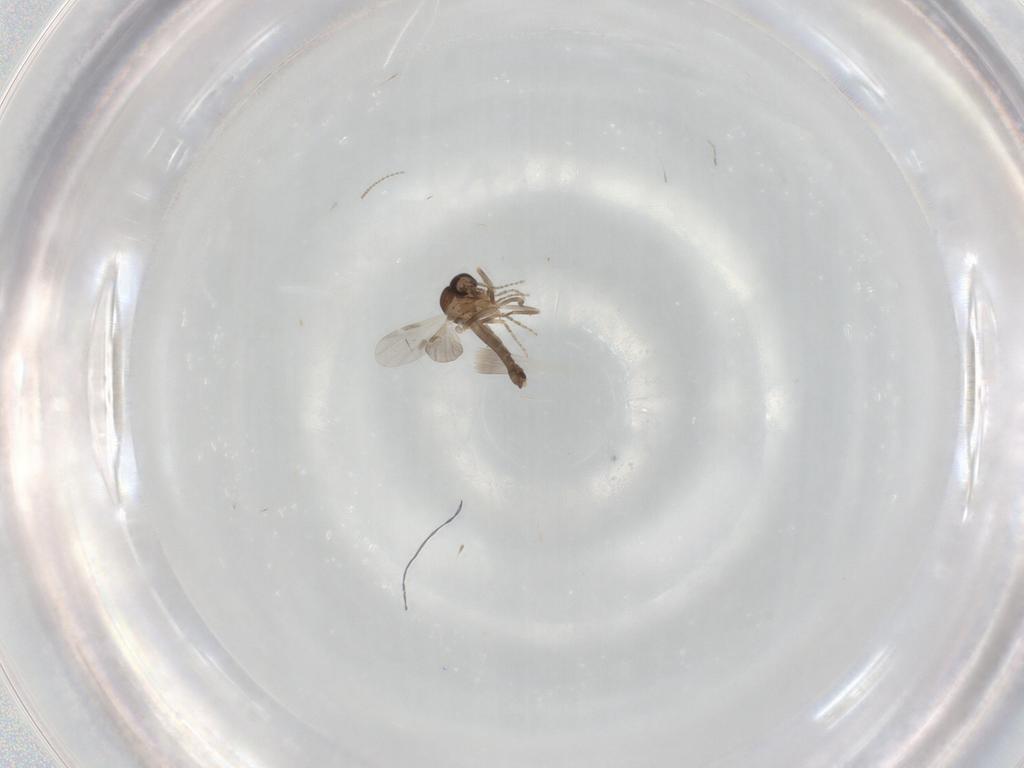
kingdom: Animalia
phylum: Arthropoda
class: Insecta
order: Diptera
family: Ceratopogonidae
